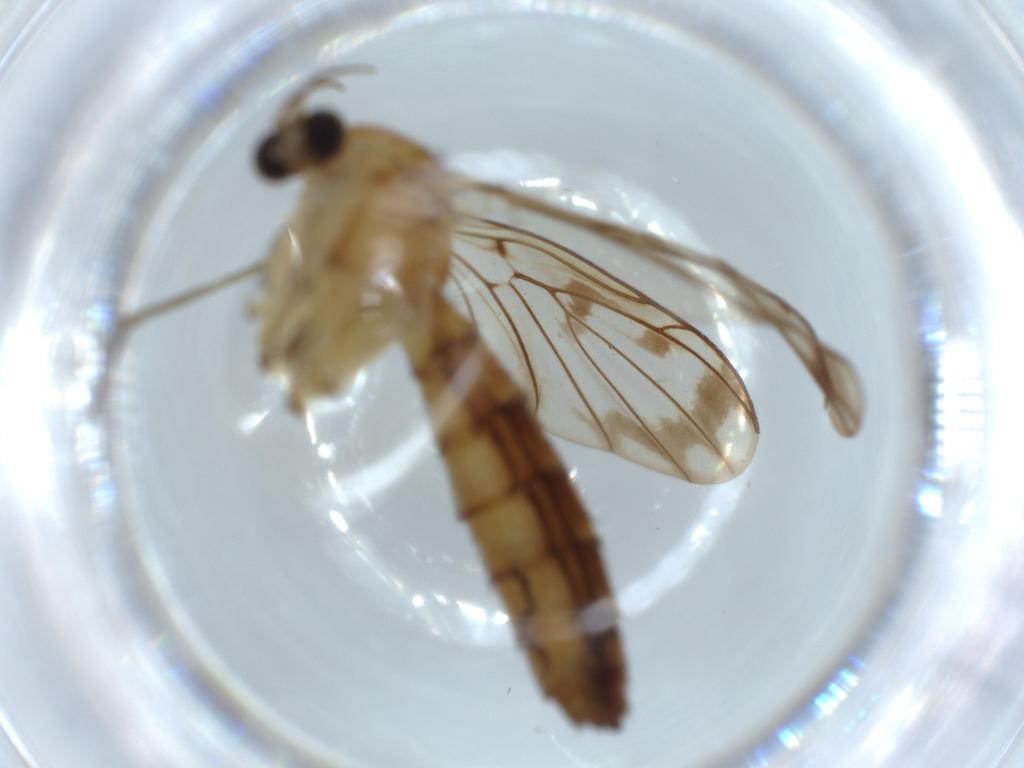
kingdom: Animalia
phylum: Arthropoda
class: Insecta
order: Diptera
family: Cecidomyiidae
